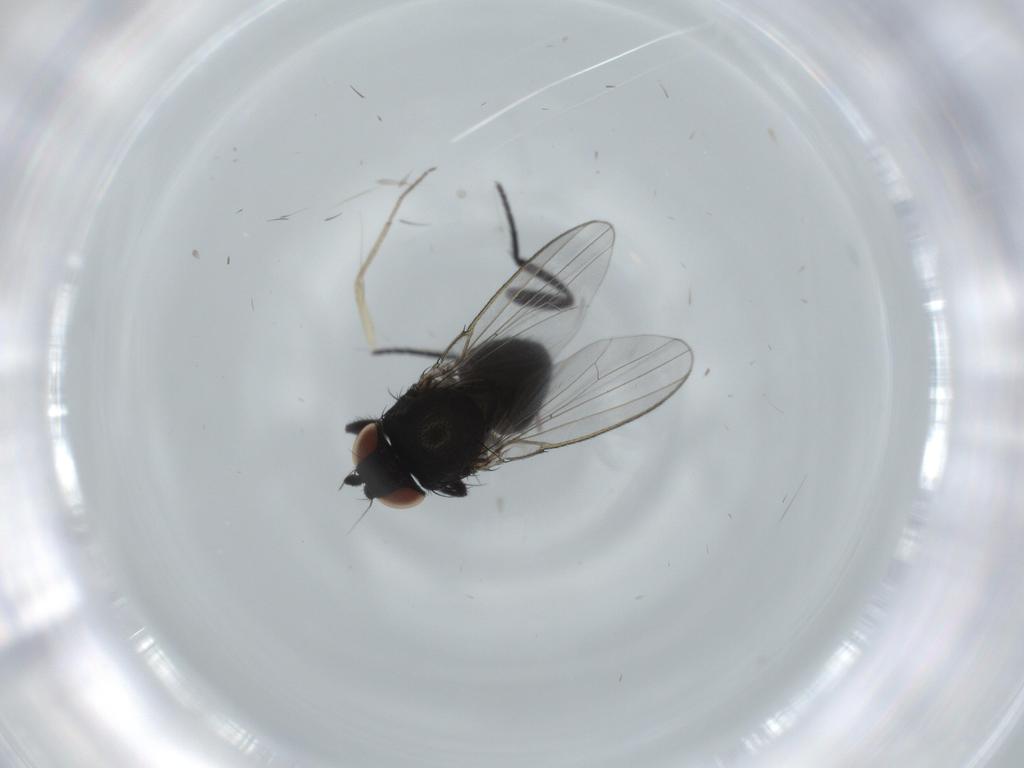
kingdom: Animalia
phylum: Arthropoda
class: Insecta
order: Diptera
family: Milichiidae
